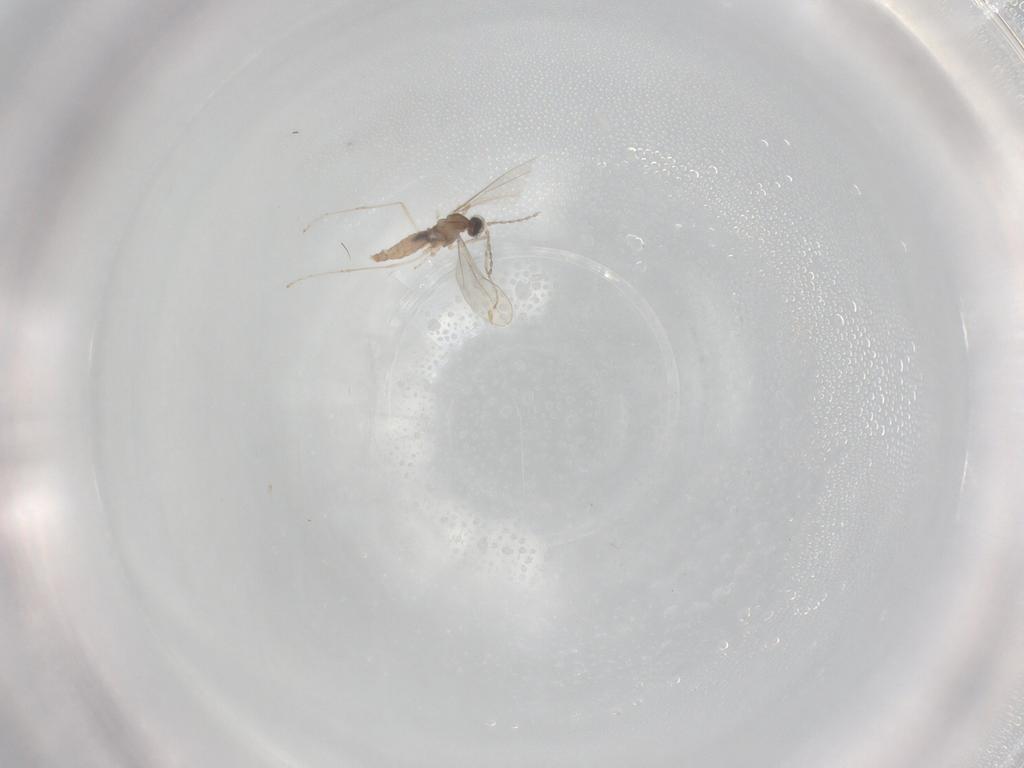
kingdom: Animalia
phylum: Arthropoda
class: Insecta
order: Diptera
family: Cecidomyiidae
